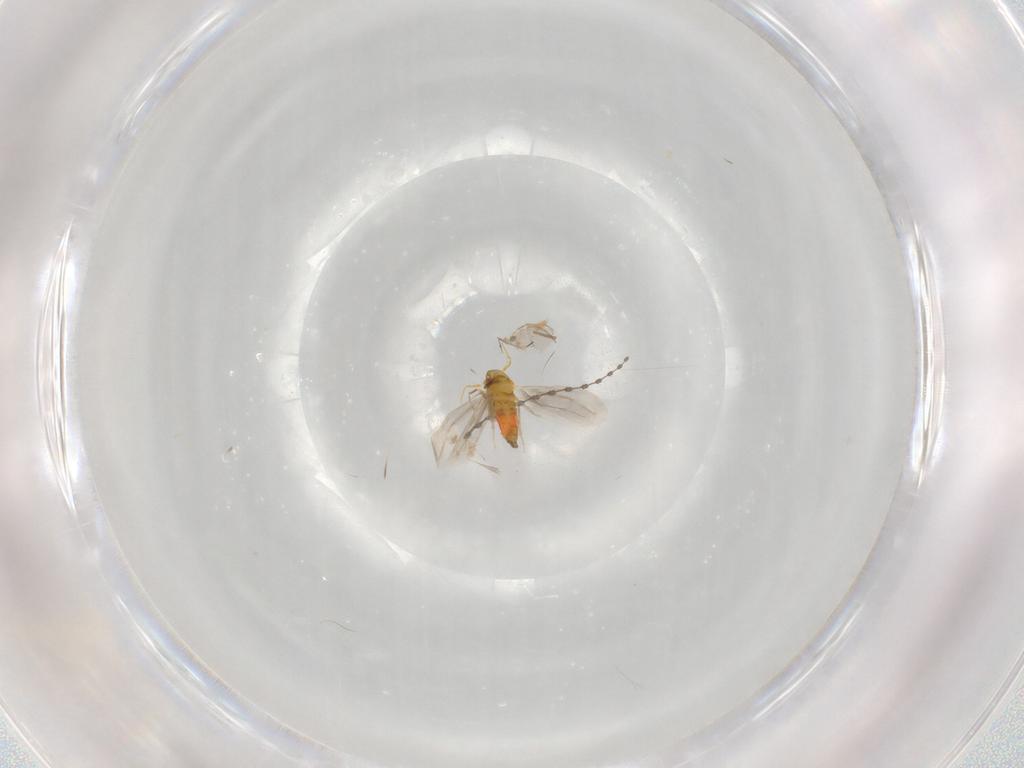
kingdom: Animalia
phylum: Arthropoda
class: Insecta
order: Hemiptera
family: Aleyrodidae
